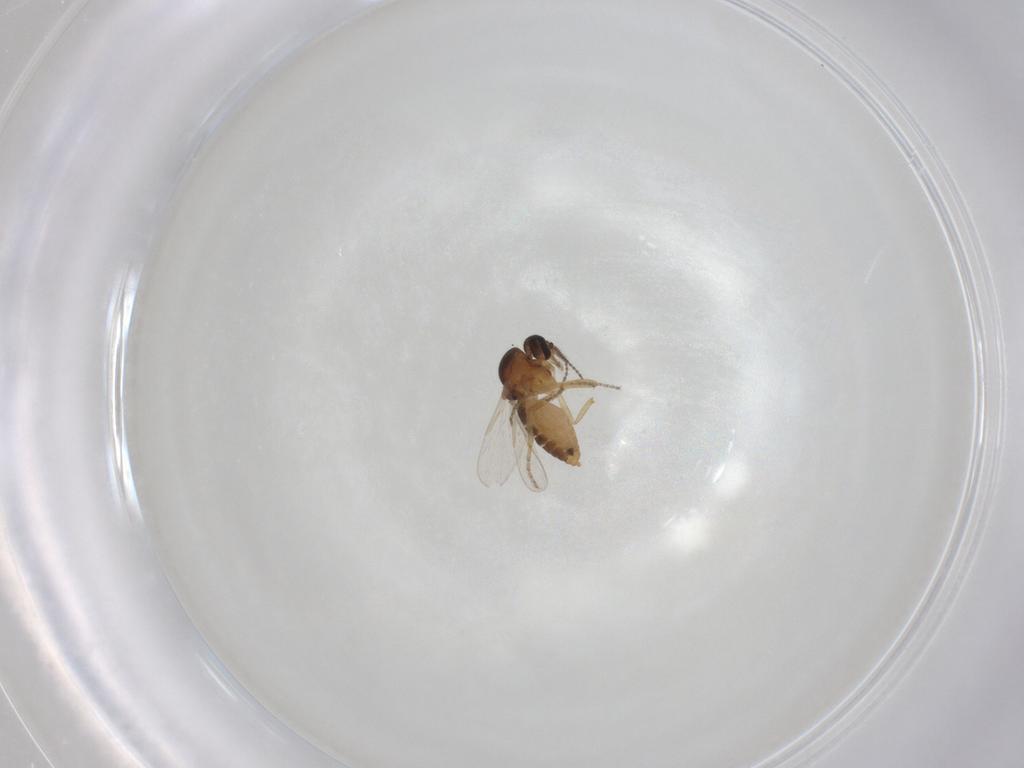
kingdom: Animalia
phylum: Arthropoda
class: Insecta
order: Diptera
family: Ceratopogonidae
